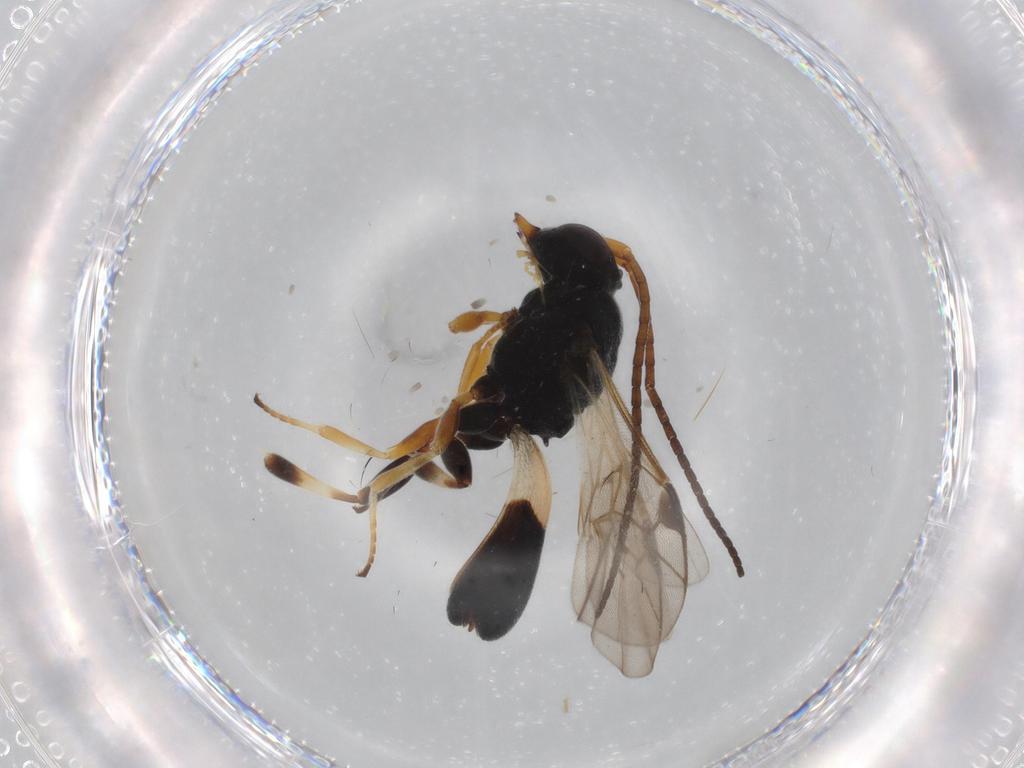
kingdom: Animalia
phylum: Arthropoda
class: Insecta
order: Hymenoptera
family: Braconidae
